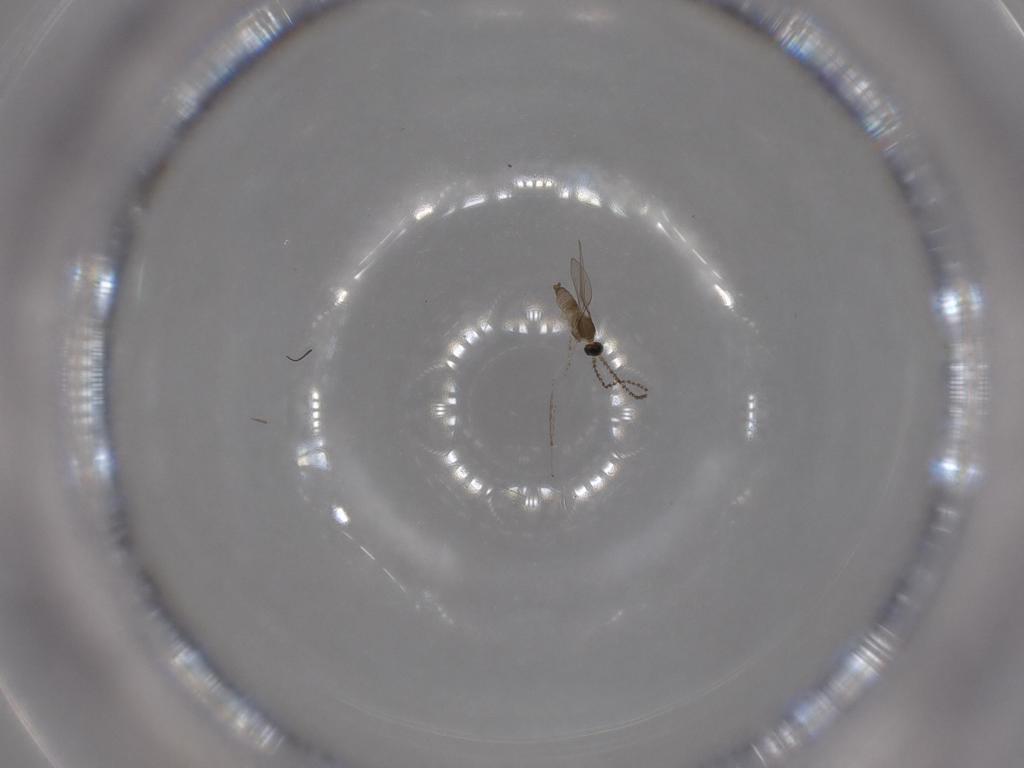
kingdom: Animalia
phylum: Arthropoda
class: Insecta
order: Diptera
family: Cecidomyiidae
